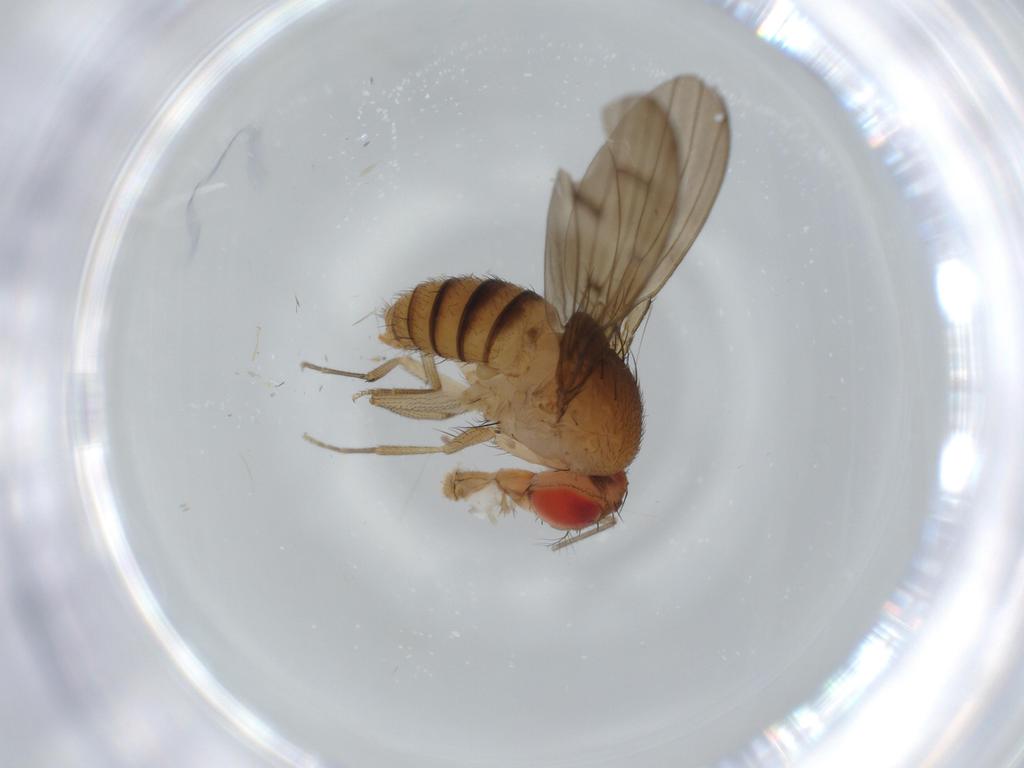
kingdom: Animalia
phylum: Arthropoda
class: Insecta
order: Diptera
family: Drosophilidae
